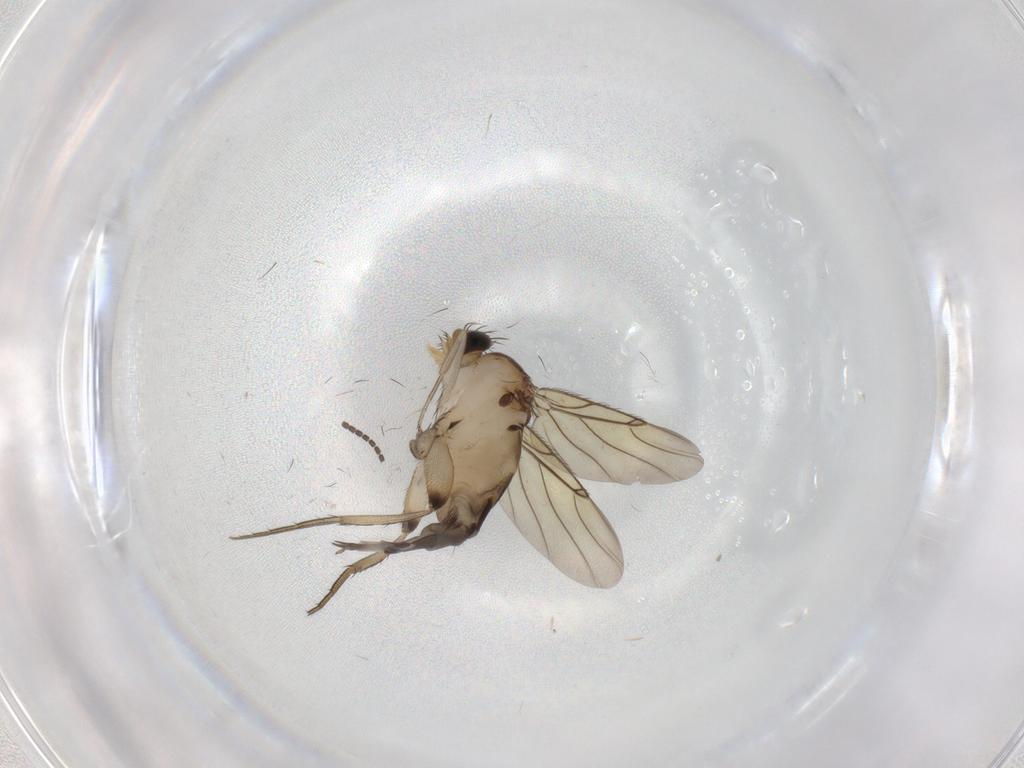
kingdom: Animalia
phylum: Arthropoda
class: Insecta
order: Diptera
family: Phoridae
